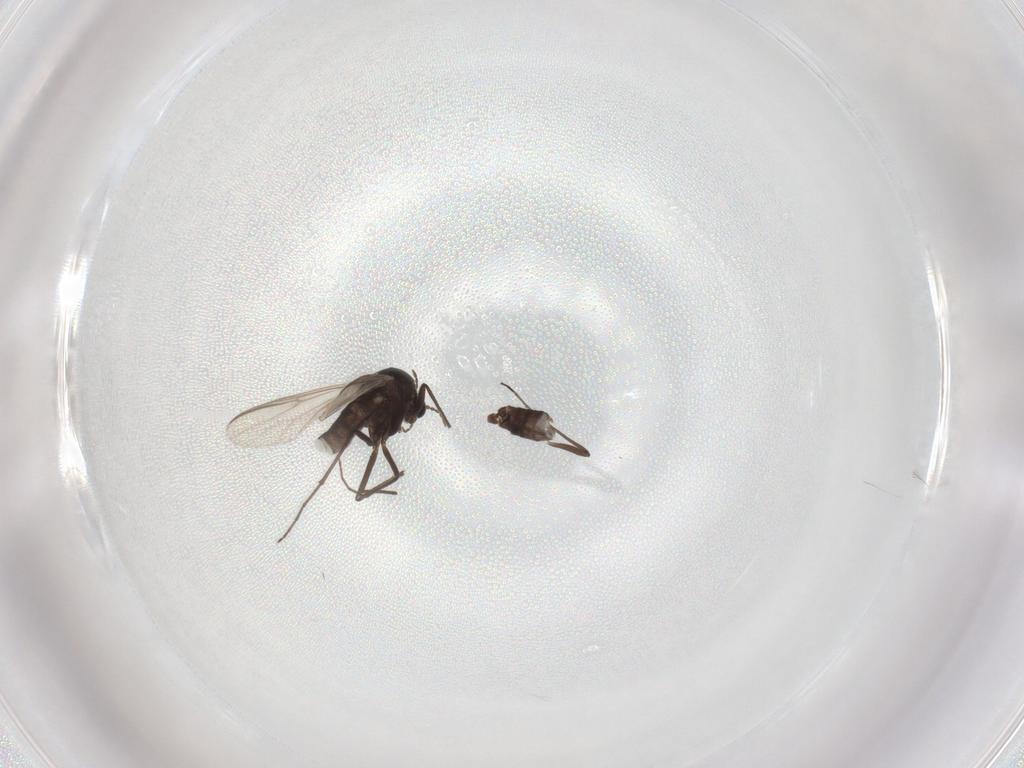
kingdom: Animalia
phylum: Arthropoda
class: Insecta
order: Diptera
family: Chironomidae
